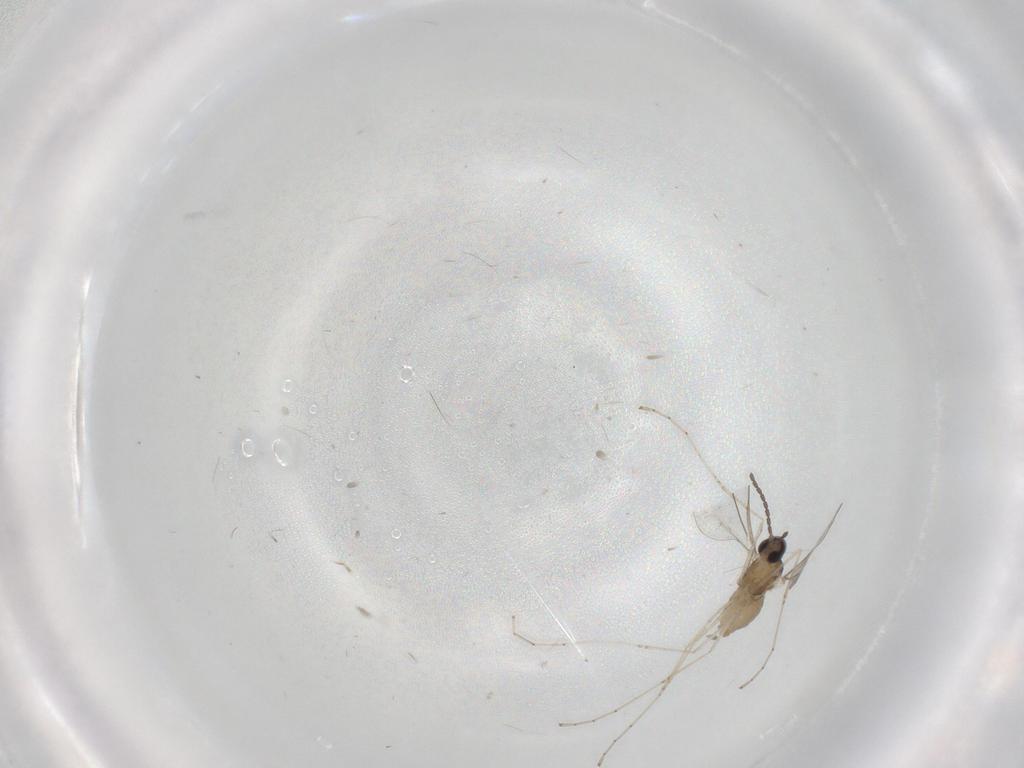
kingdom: Animalia
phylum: Arthropoda
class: Insecta
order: Diptera
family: Cecidomyiidae
